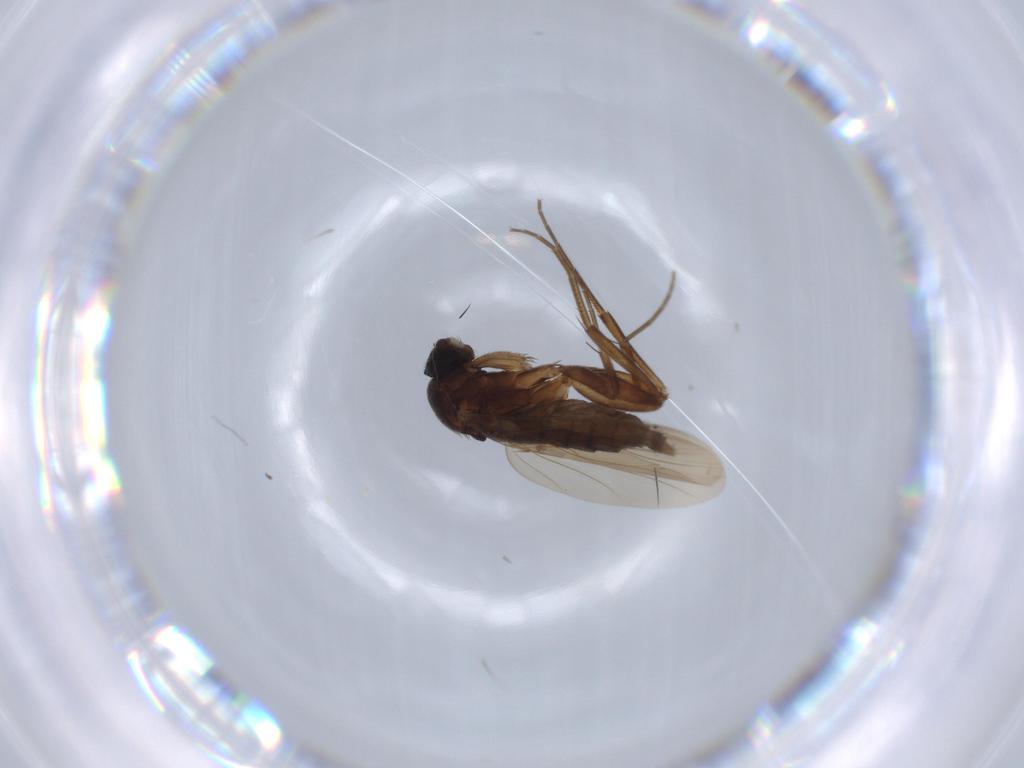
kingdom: Animalia
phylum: Arthropoda
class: Insecta
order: Diptera
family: Phoridae
